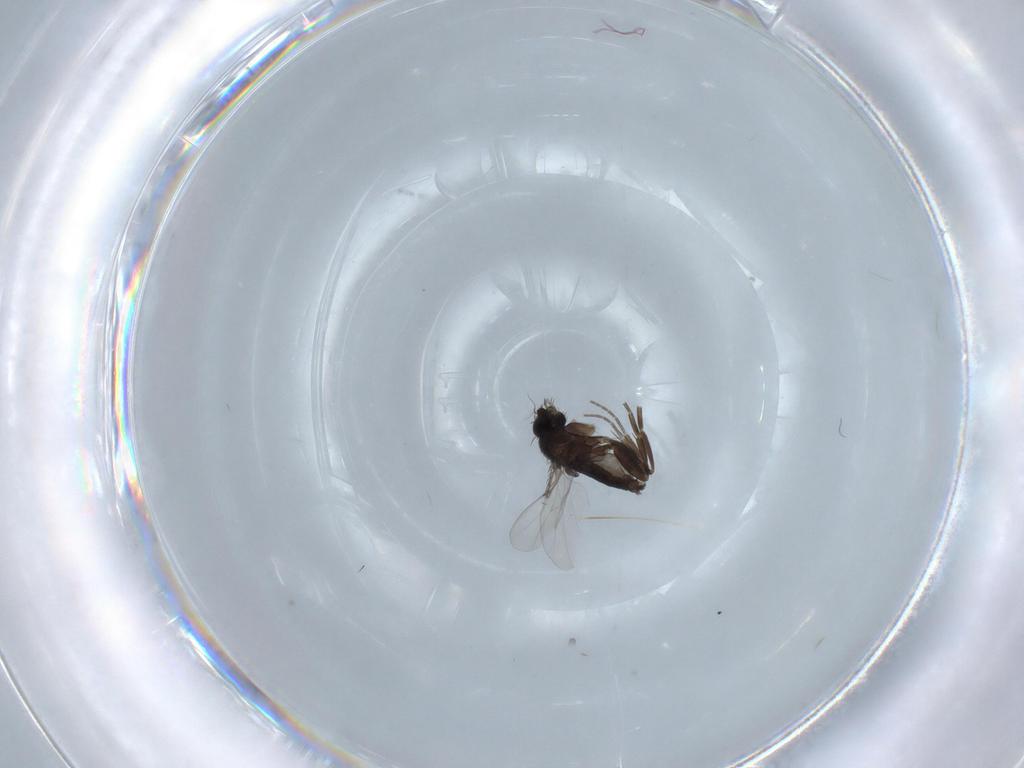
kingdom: Animalia
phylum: Arthropoda
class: Insecta
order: Diptera
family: Phoridae
